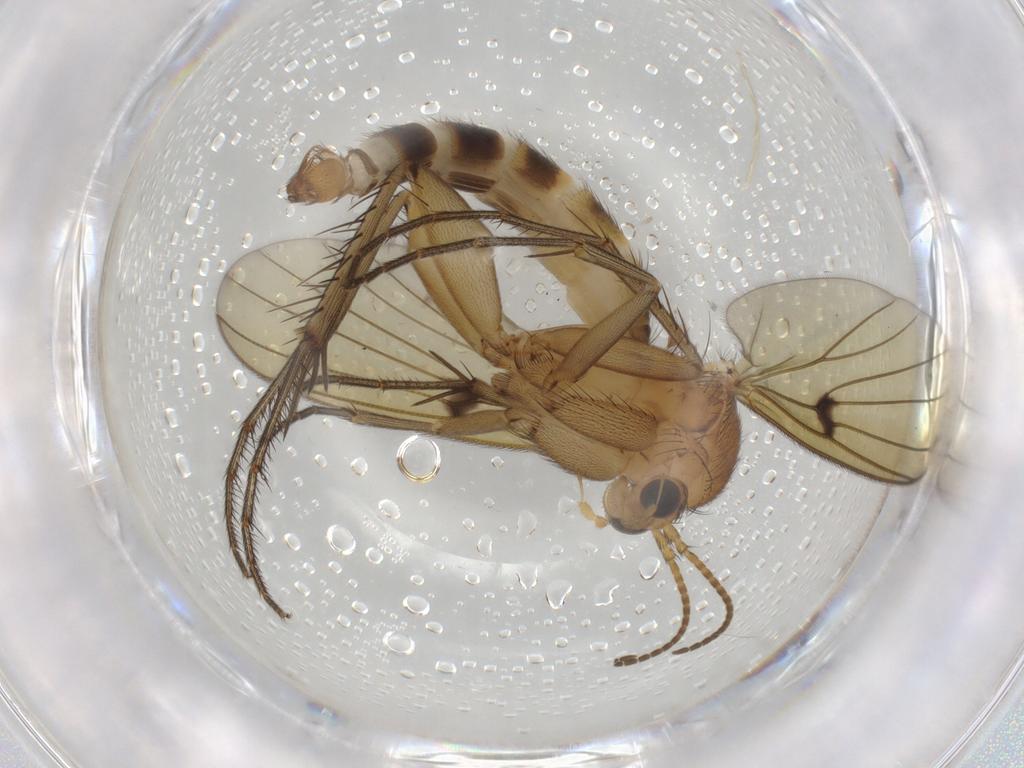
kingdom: Animalia
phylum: Arthropoda
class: Insecta
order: Diptera
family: Mycetophilidae
